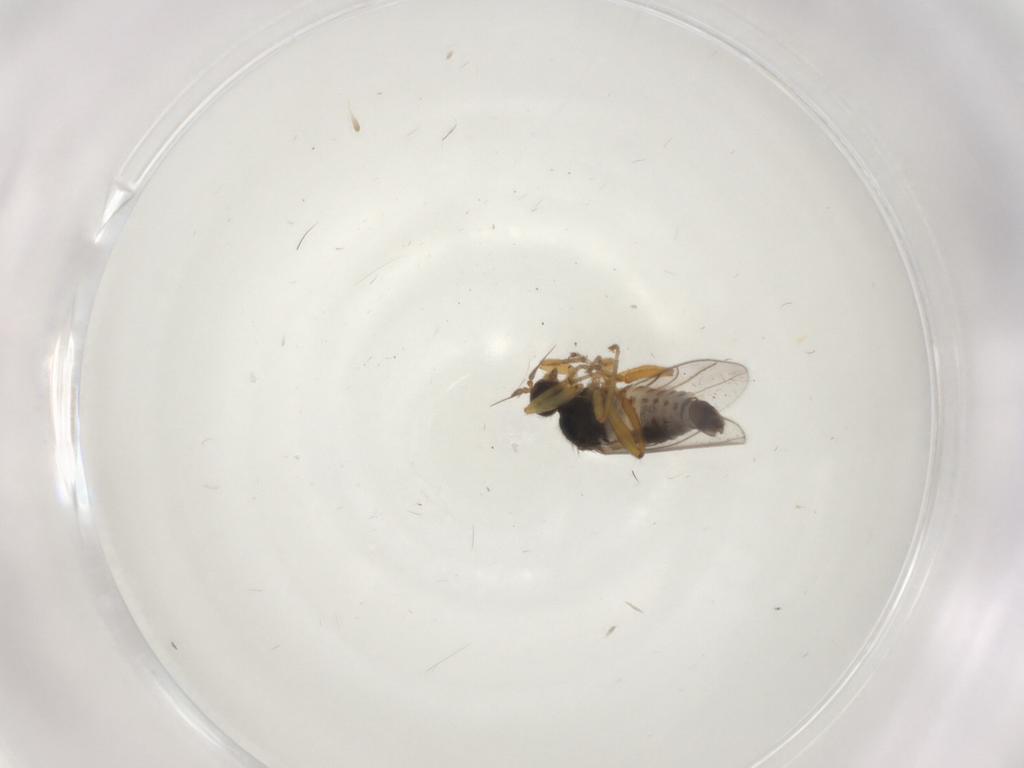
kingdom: Animalia
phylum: Arthropoda
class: Insecta
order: Diptera
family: Hybotidae
